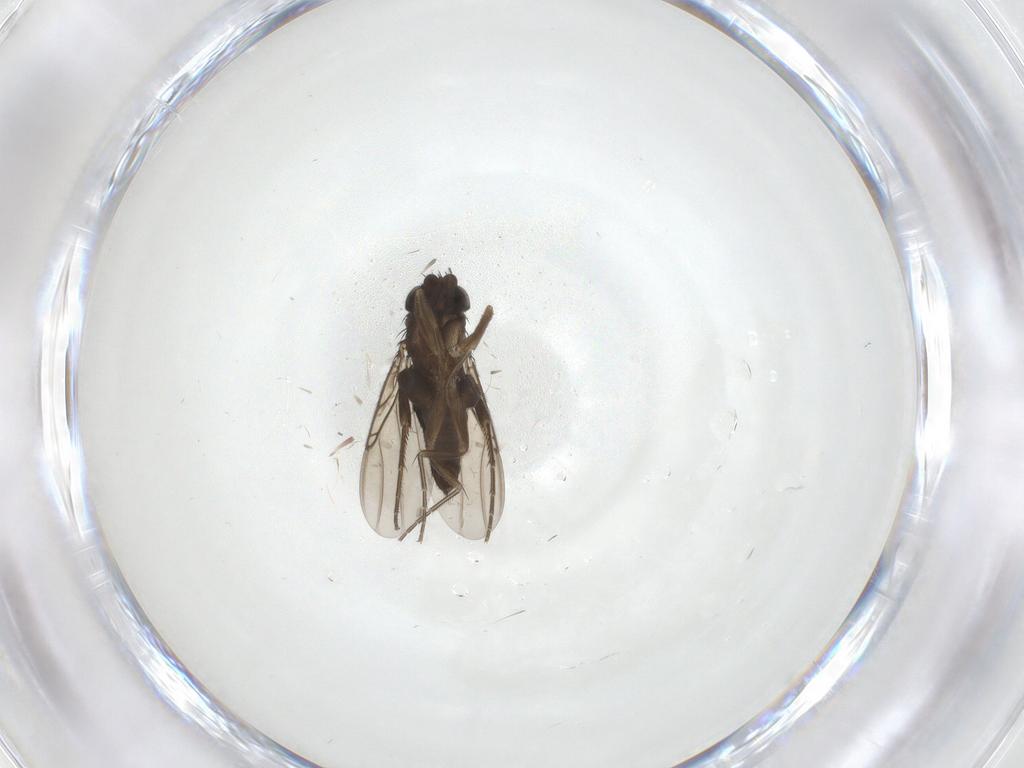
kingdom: Animalia
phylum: Arthropoda
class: Insecta
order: Diptera
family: Phoridae
